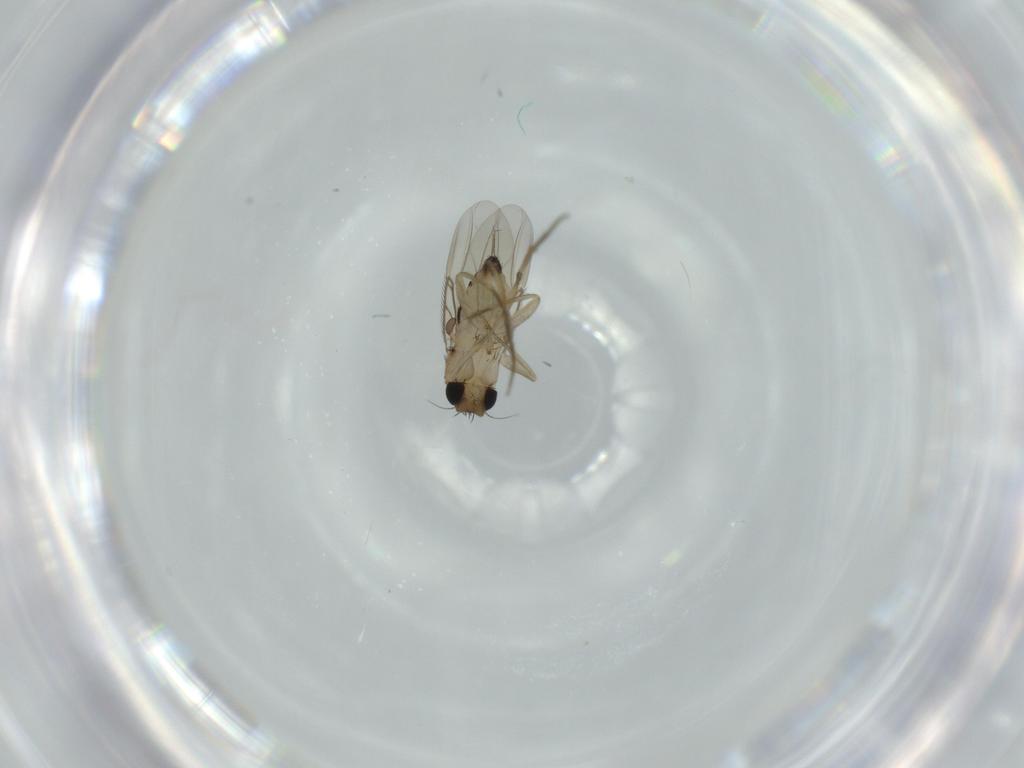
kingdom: Animalia
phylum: Arthropoda
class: Insecta
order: Diptera
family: Phoridae
